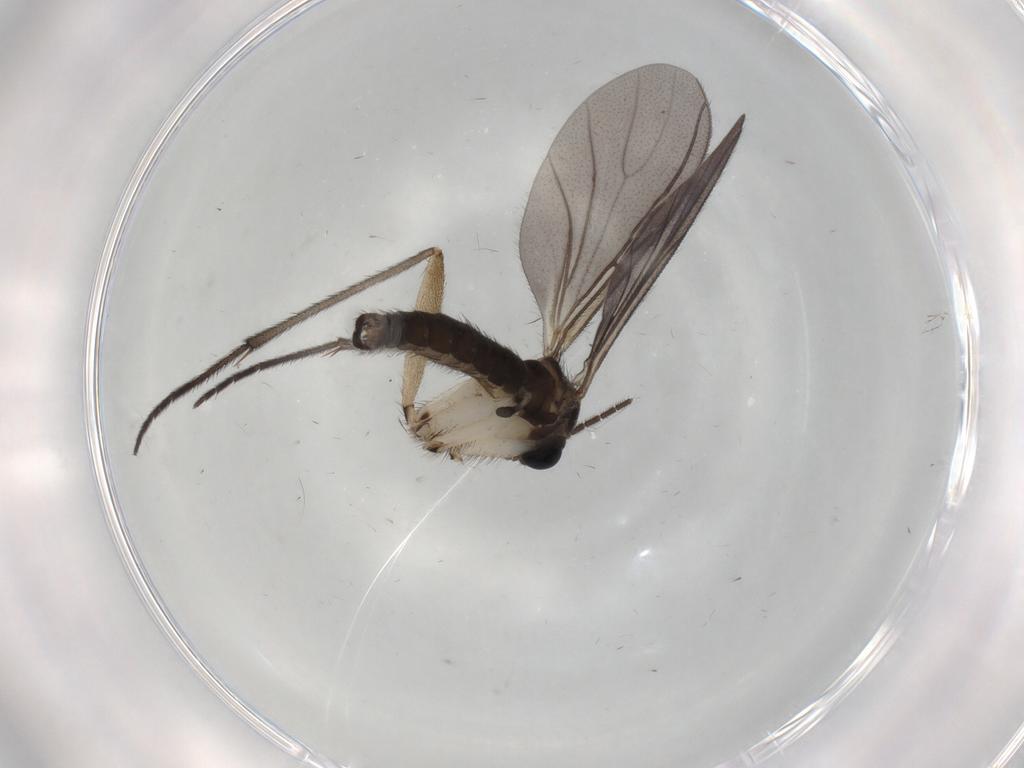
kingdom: Animalia
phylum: Arthropoda
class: Insecta
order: Diptera
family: Sciaridae
